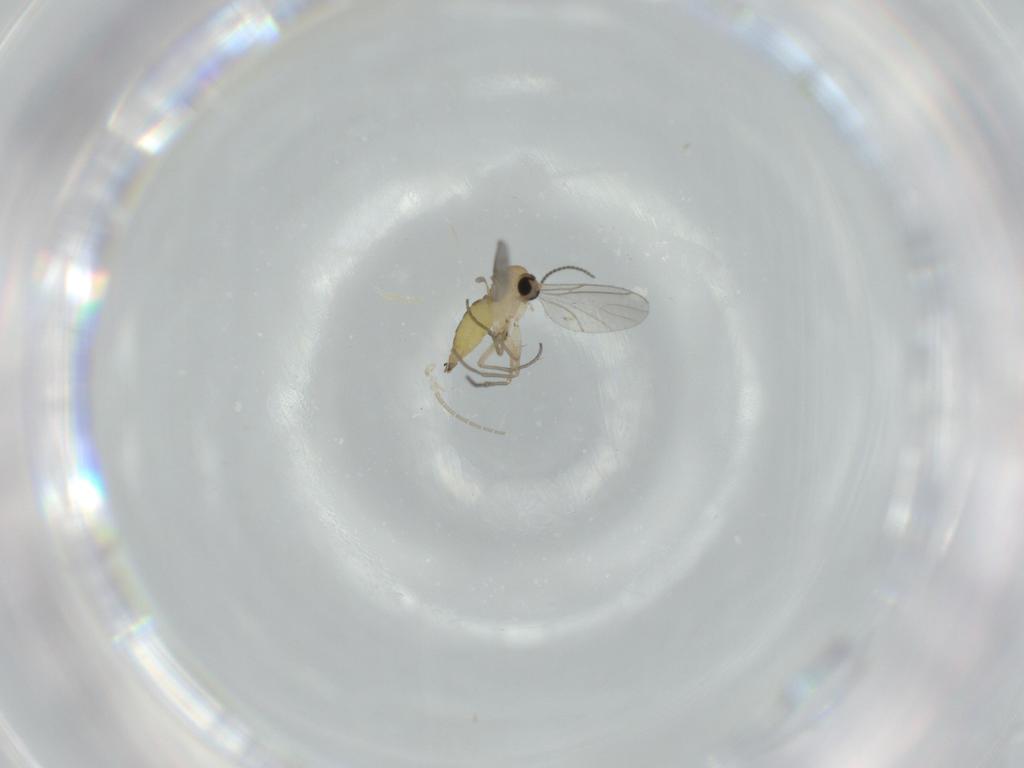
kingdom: Animalia
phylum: Arthropoda
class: Insecta
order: Diptera
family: Sciaridae
